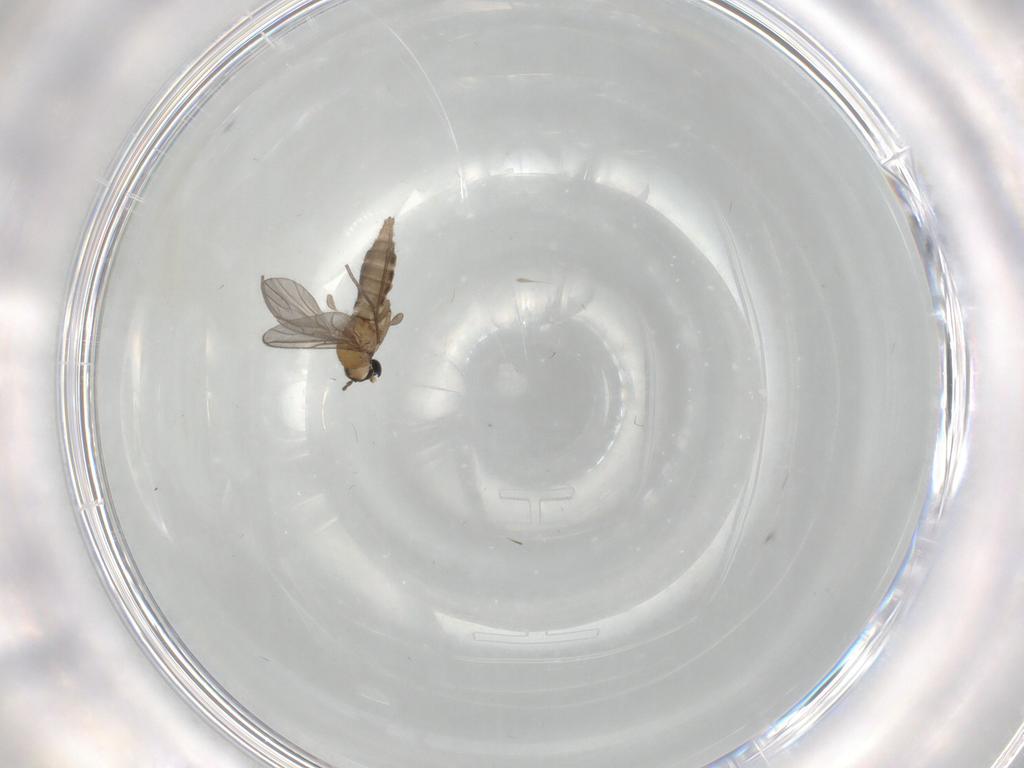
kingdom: Animalia
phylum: Arthropoda
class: Insecta
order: Diptera
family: Sciaridae
